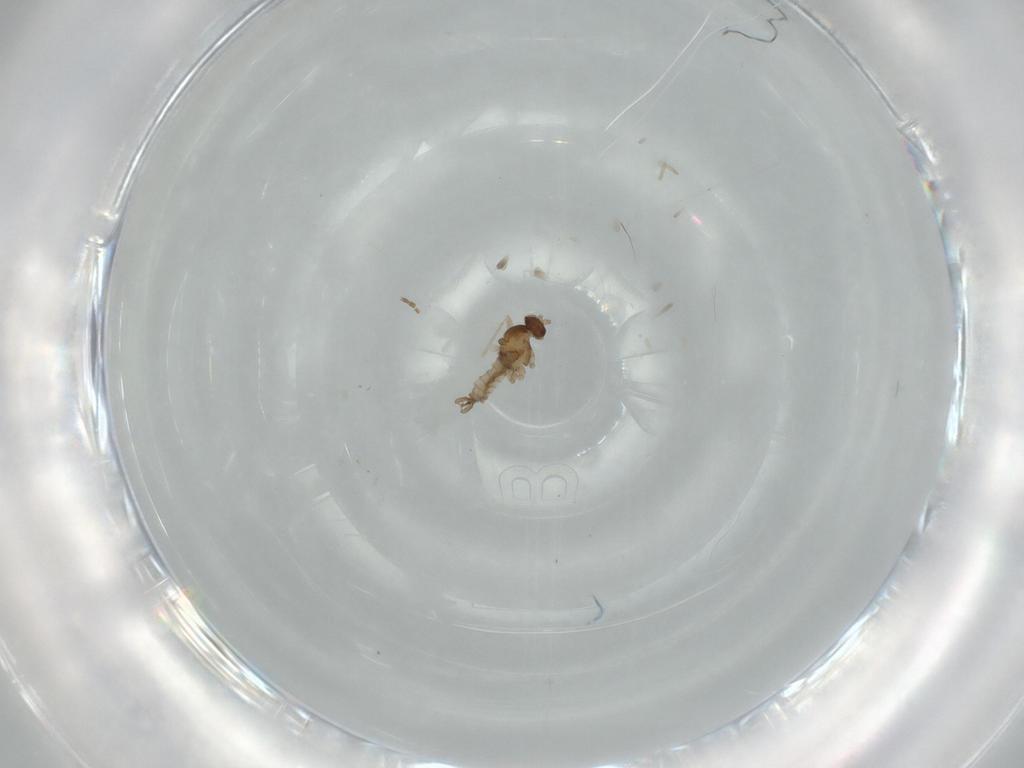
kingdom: Animalia
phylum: Arthropoda
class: Insecta
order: Diptera
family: Cecidomyiidae
